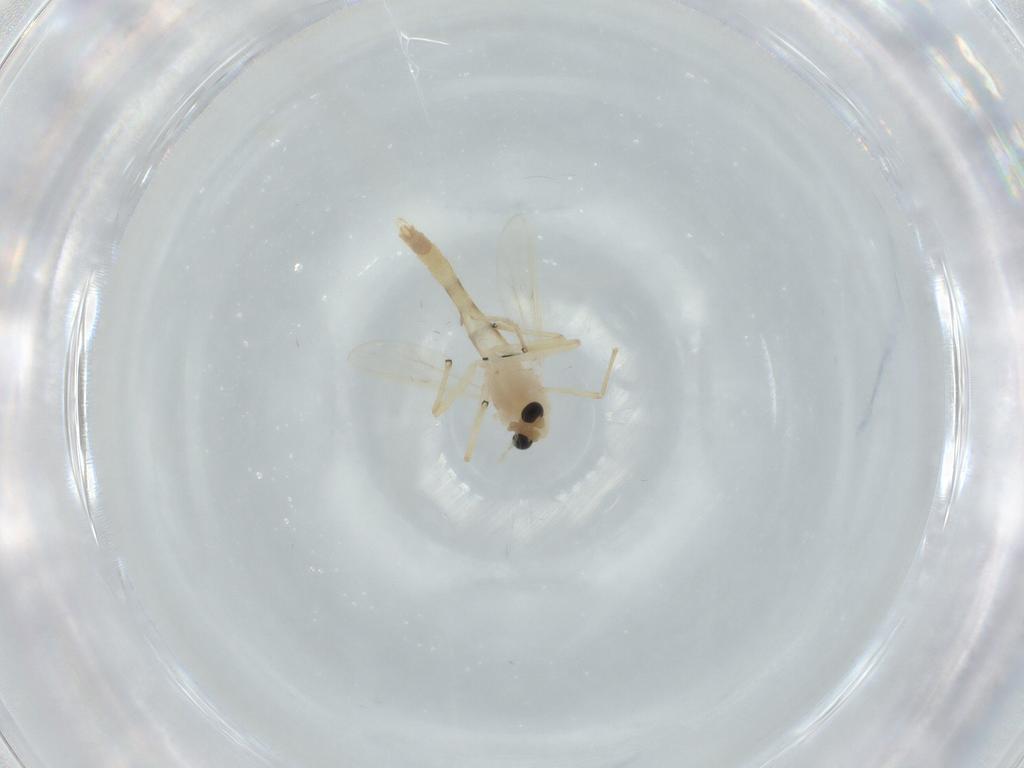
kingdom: Animalia
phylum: Arthropoda
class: Insecta
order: Diptera
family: Chironomidae
